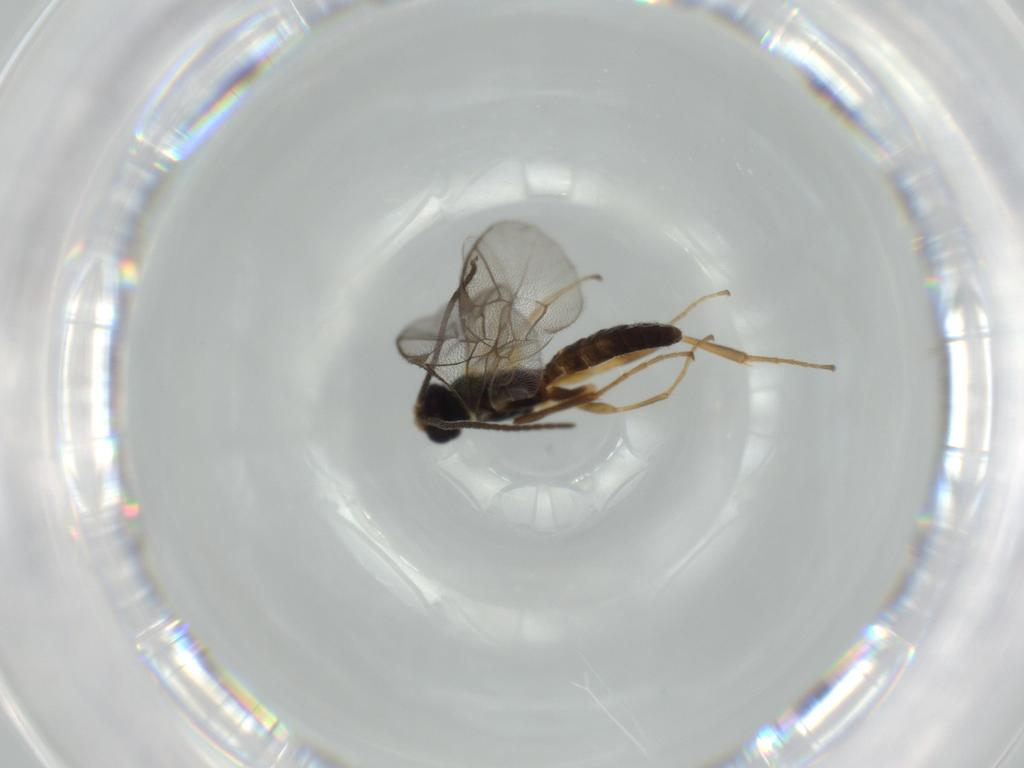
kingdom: Animalia
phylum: Arthropoda
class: Insecta
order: Hymenoptera
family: Ichneumonidae
